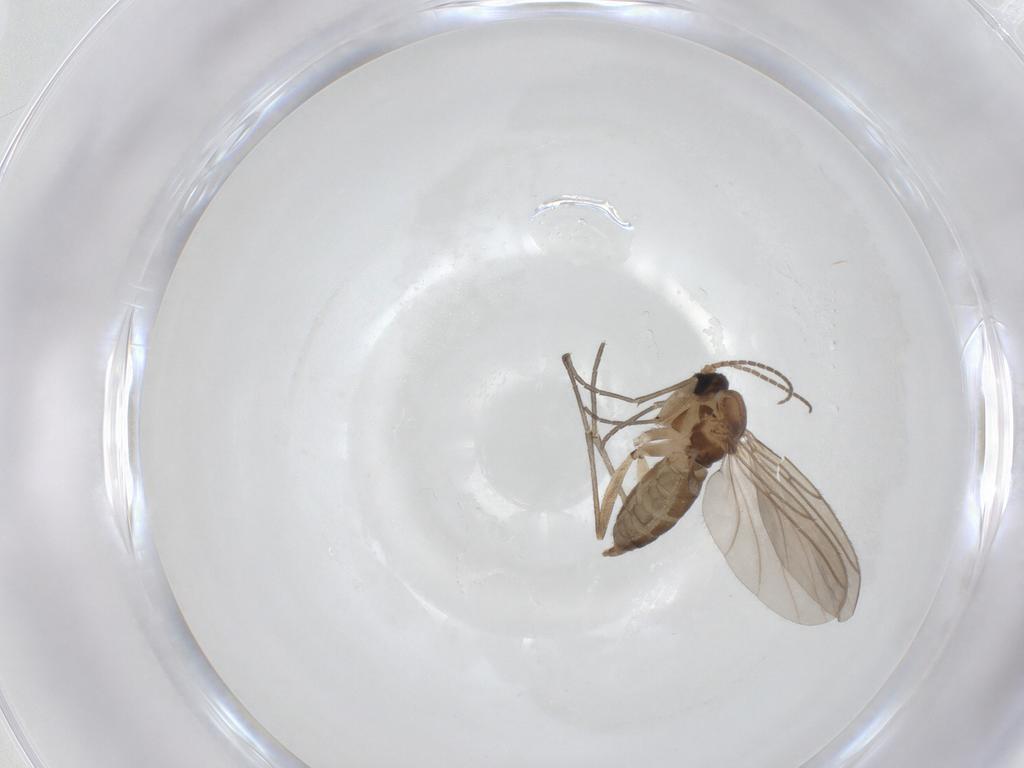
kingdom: Animalia
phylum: Arthropoda
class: Insecta
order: Diptera
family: Sciaridae
